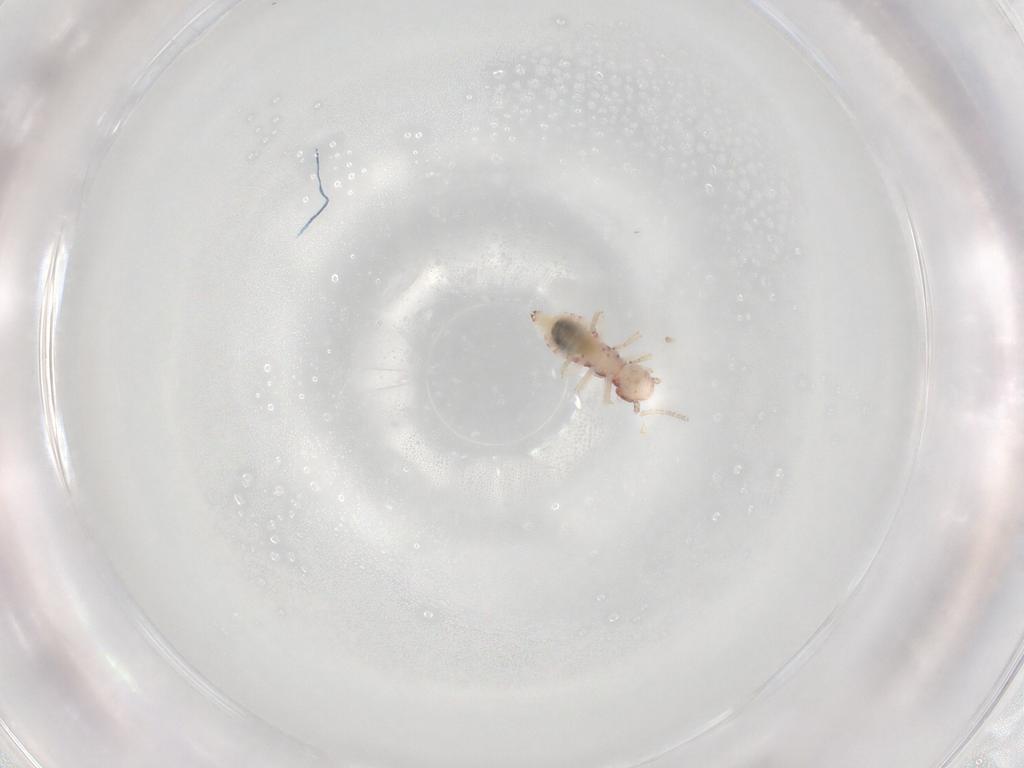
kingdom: Animalia
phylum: Arthropoda
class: Insecta
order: Psocodea
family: Caeciliusidae
